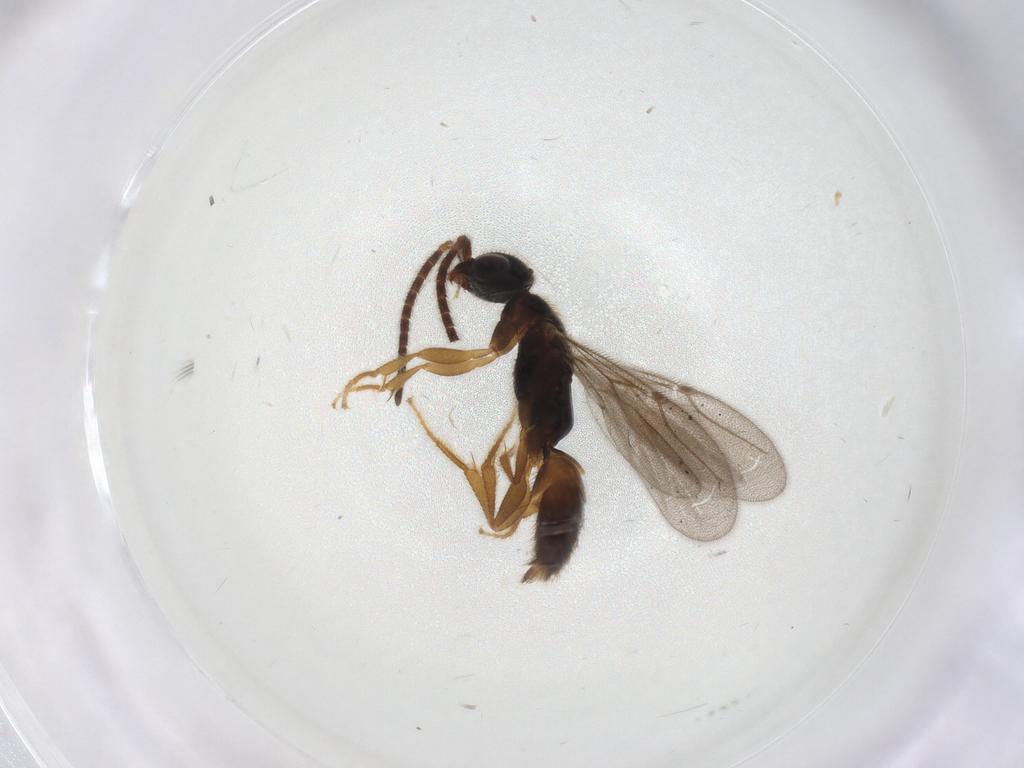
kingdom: Animalia
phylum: Arthropoda
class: Insecta
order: Hymenoptera
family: Bethylidae
